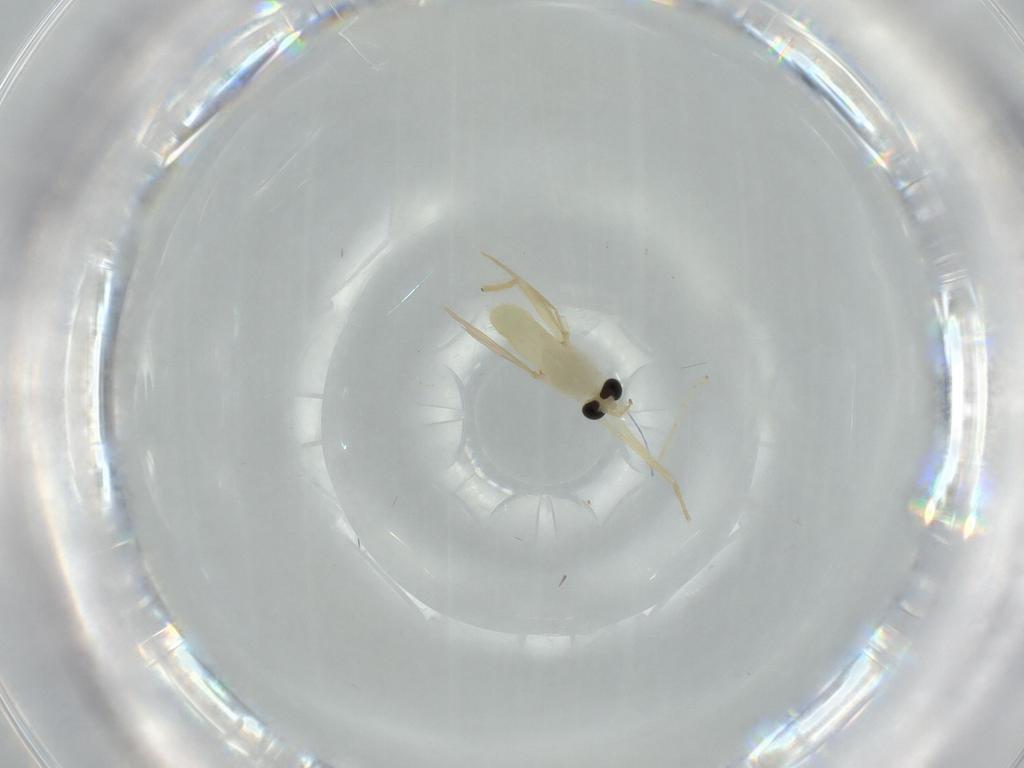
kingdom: Animalia
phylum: Arthropoda
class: Insecta
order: Diptera
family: Chironomidae
